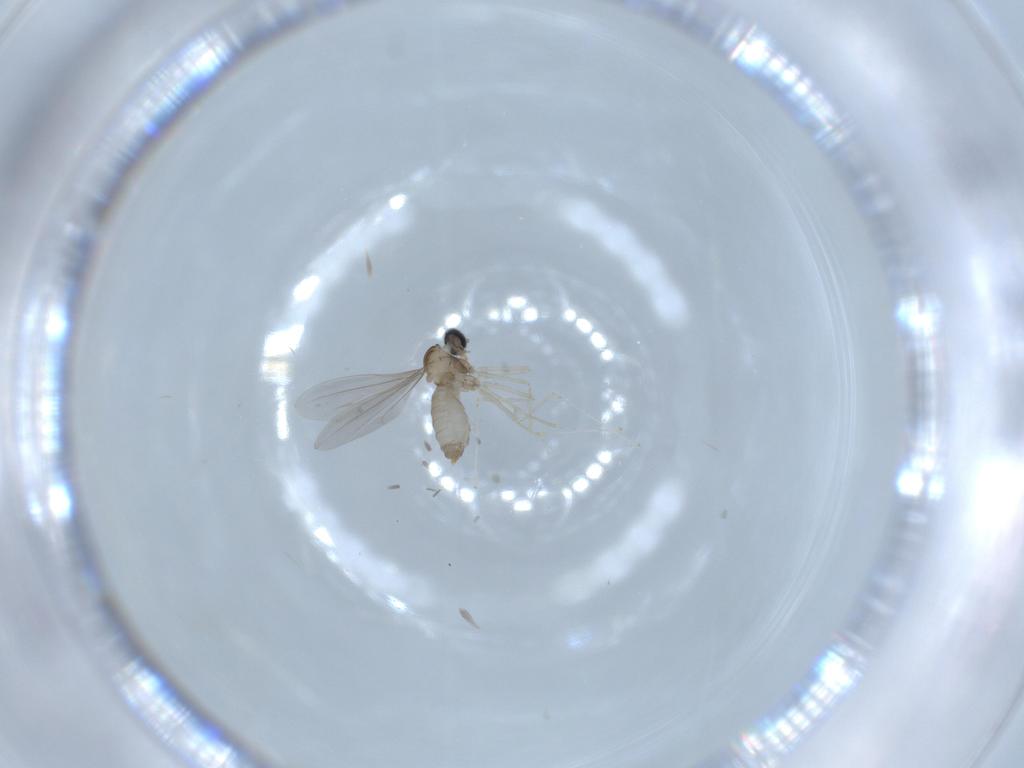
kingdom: Animalia
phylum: Arthropoda
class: Insecta
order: Diptera
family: Cecidomyiidae
